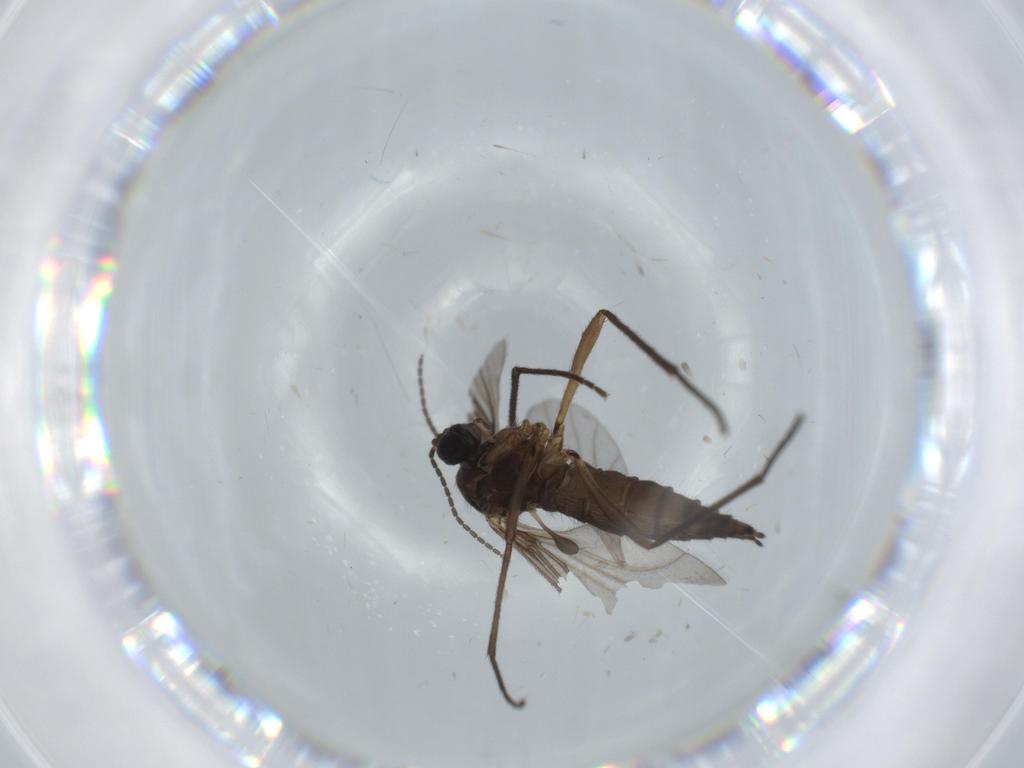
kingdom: Animalia
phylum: Arthropoda
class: Insecta
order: Diptera
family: Sciaridae
